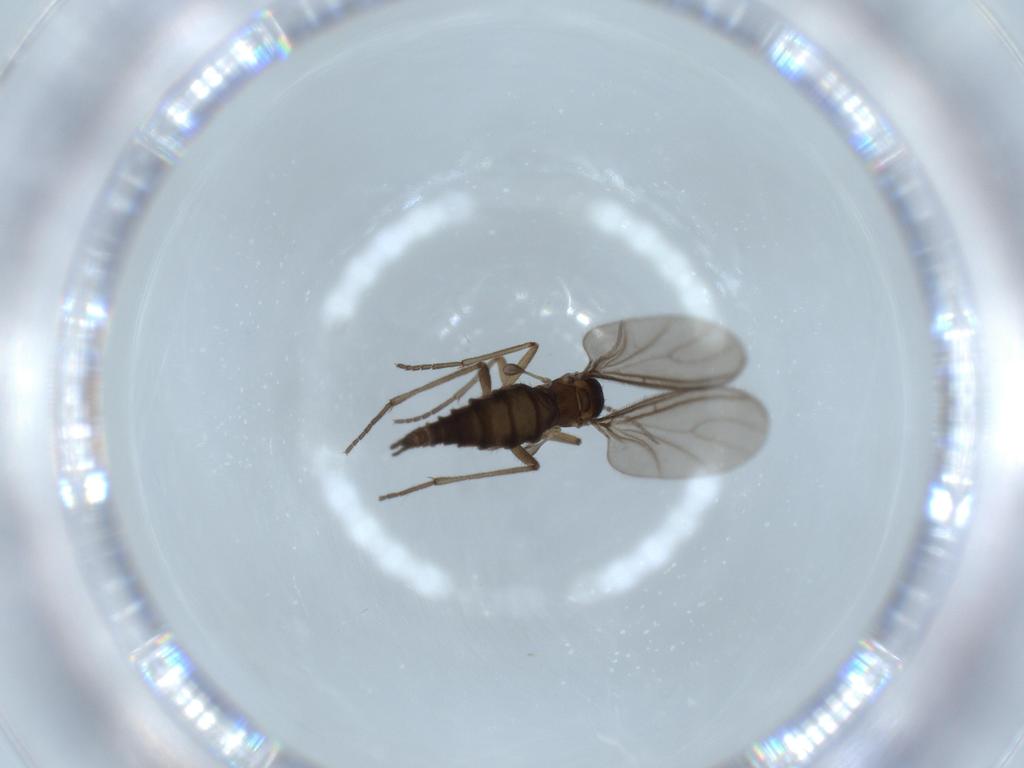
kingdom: Animalia
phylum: Arthropoda
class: Insecta
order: Diptera
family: Sciaridae
